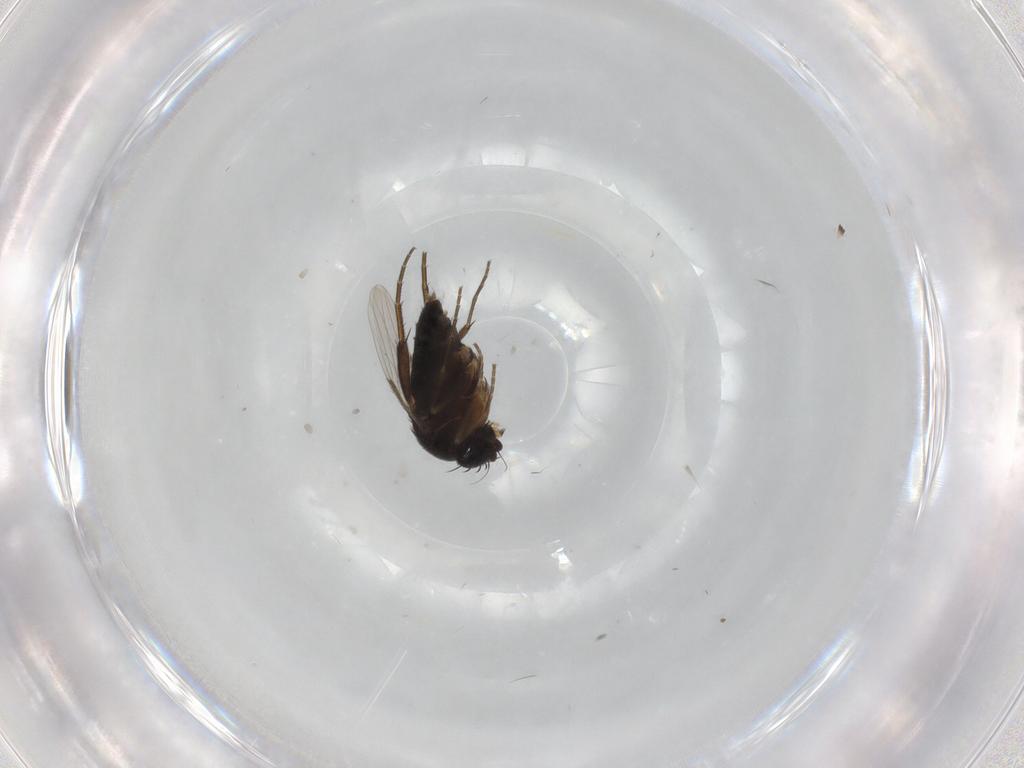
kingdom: Animalia
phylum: Arthropoda
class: Insecta
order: Diptera
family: Phoridae
